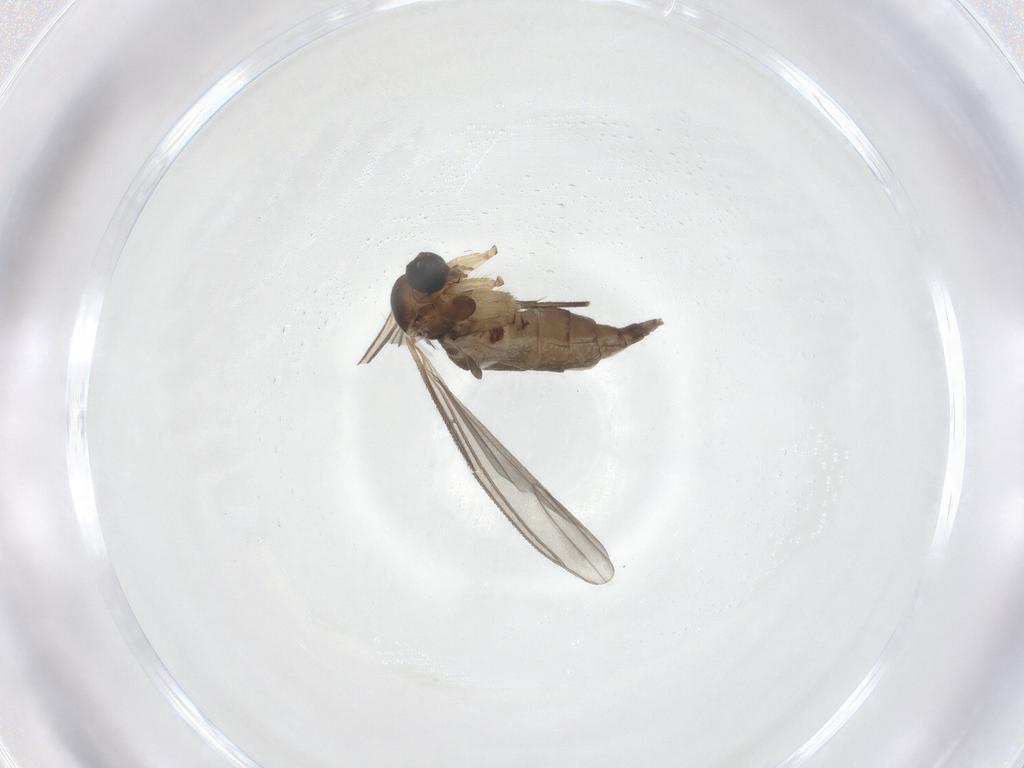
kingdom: Animalia
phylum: Arthropoda
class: Insecta
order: Diptera
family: Sciaridae
